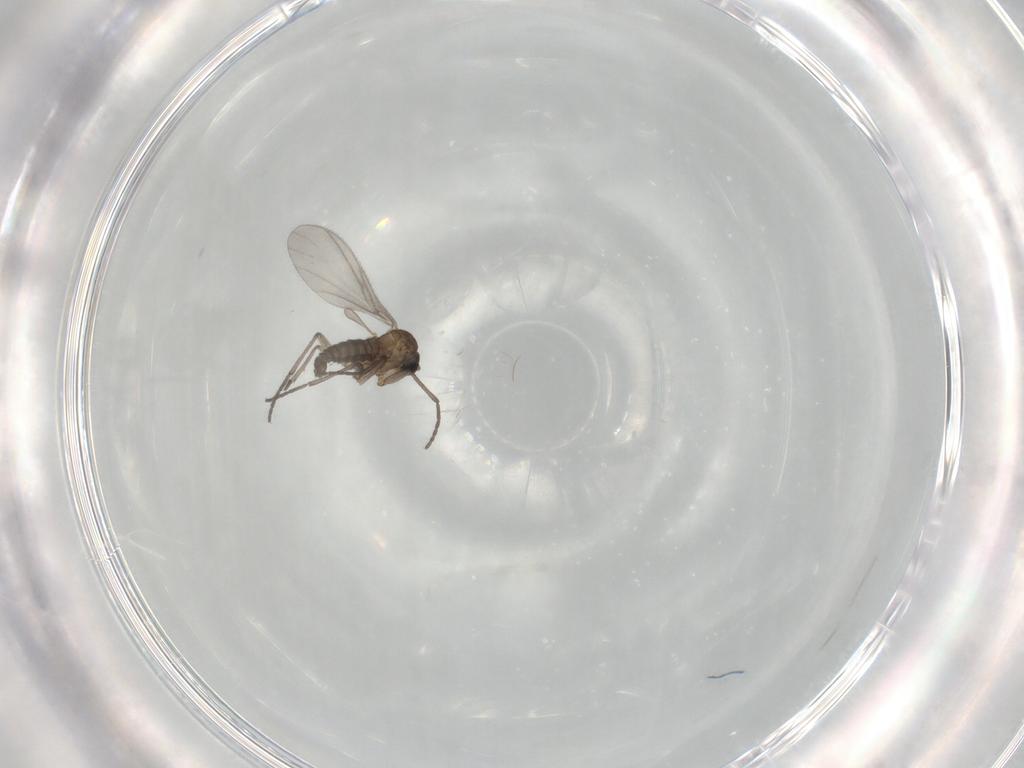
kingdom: Animalia
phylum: Arthropoda
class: Insecta
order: Diptera
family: Sciaridae
